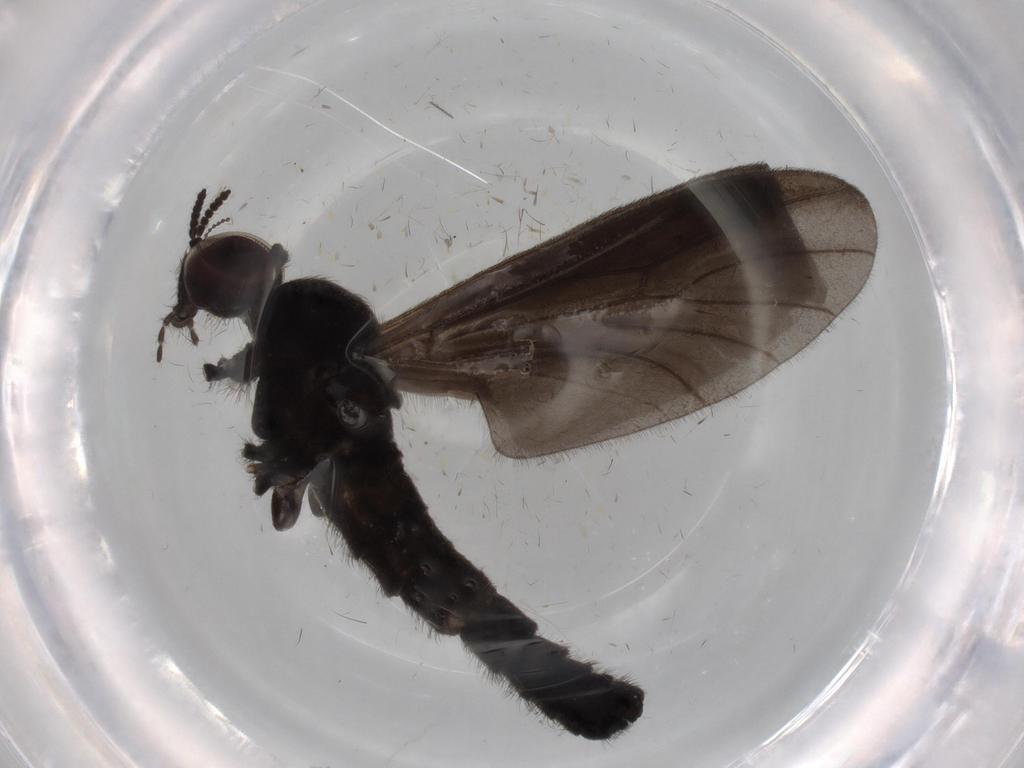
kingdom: Animalia
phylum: Arthropoda
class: Insecta
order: Diptera
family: Cecidomyiidae
